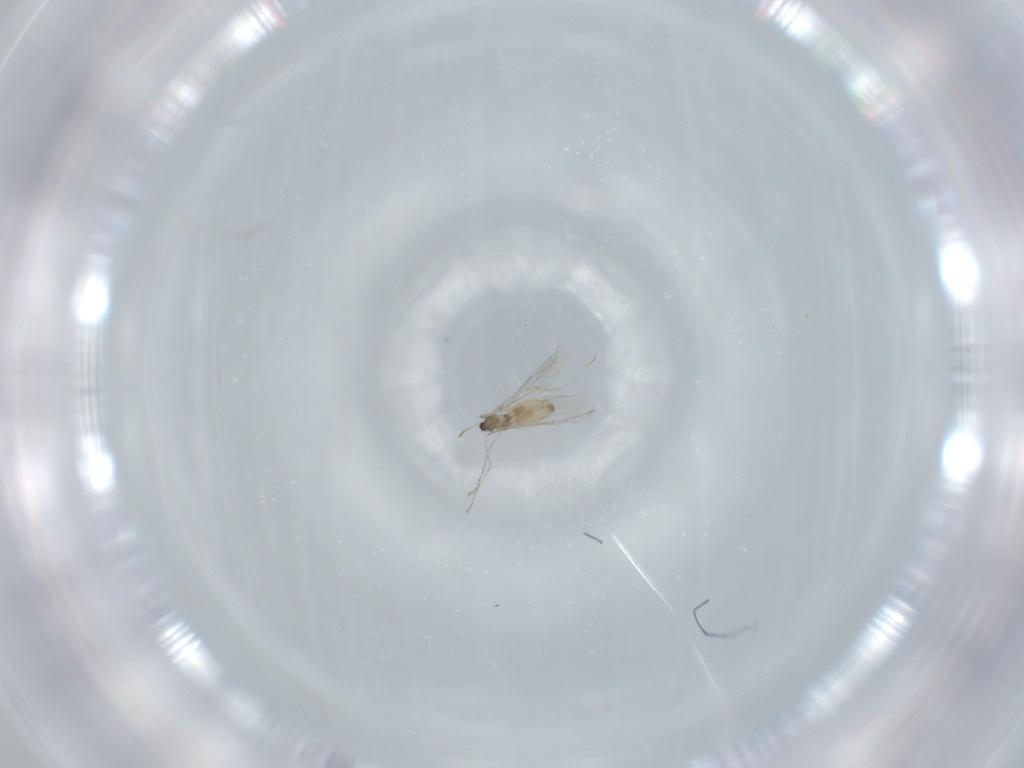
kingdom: Animalia
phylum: Arthropoda
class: Insecta
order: Diptera
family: Cecidomyiidae
